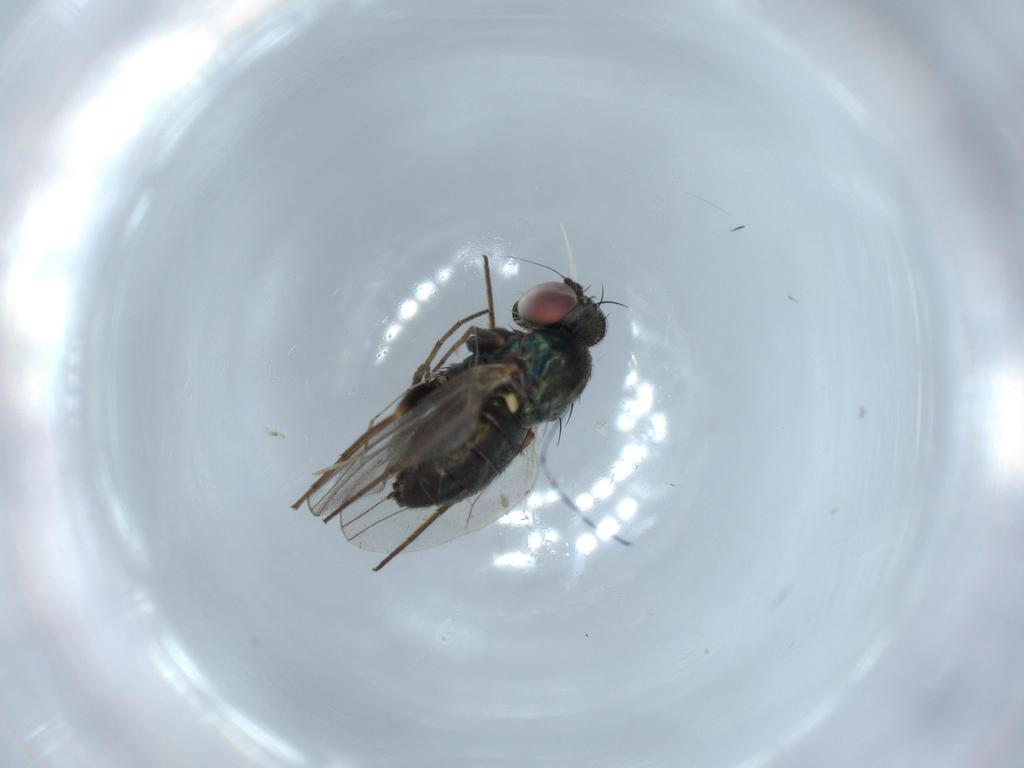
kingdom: Animalia
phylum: Arthropoda
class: Insecta
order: Diptera
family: Dolichopodidae
